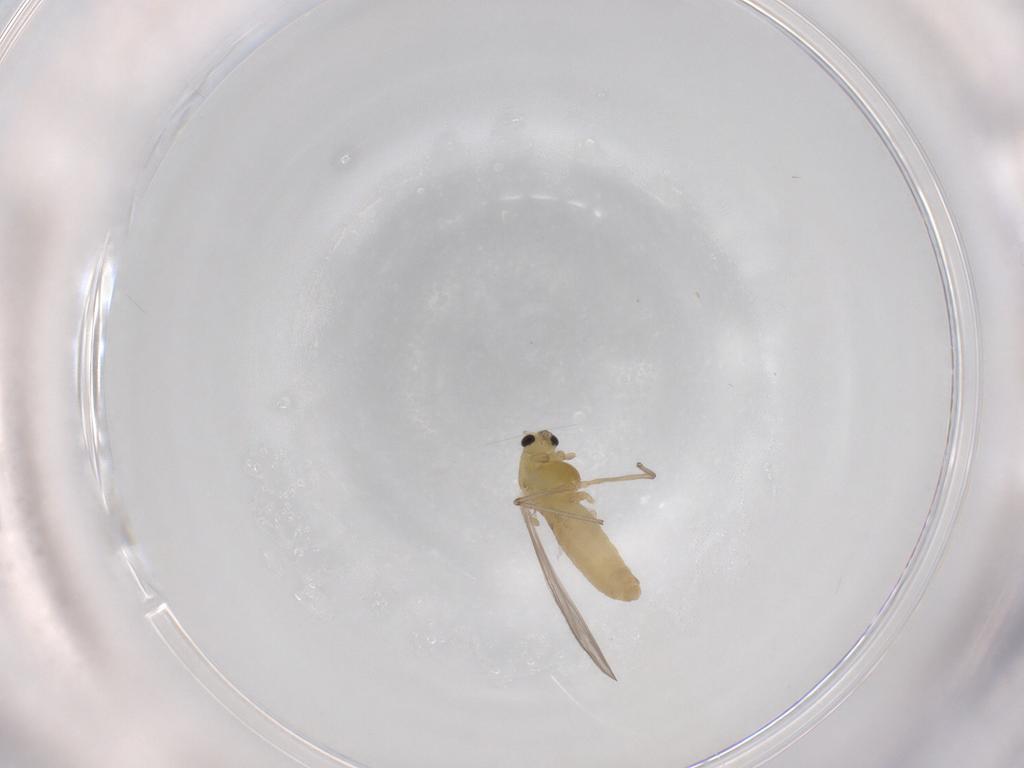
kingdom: Animalia
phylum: Arthropoda
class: Insecta
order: Diptera
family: Chironomidae
